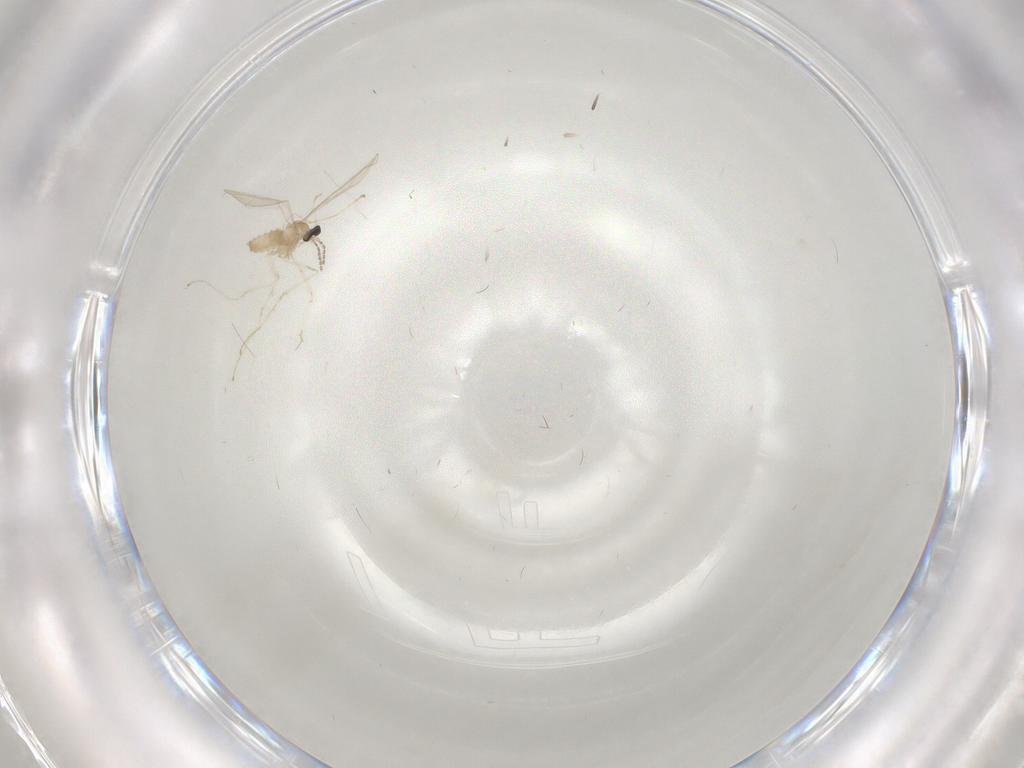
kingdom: Animalia
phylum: Arthropoda
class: Insecta
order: Diptera
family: Cecidomyiidae
